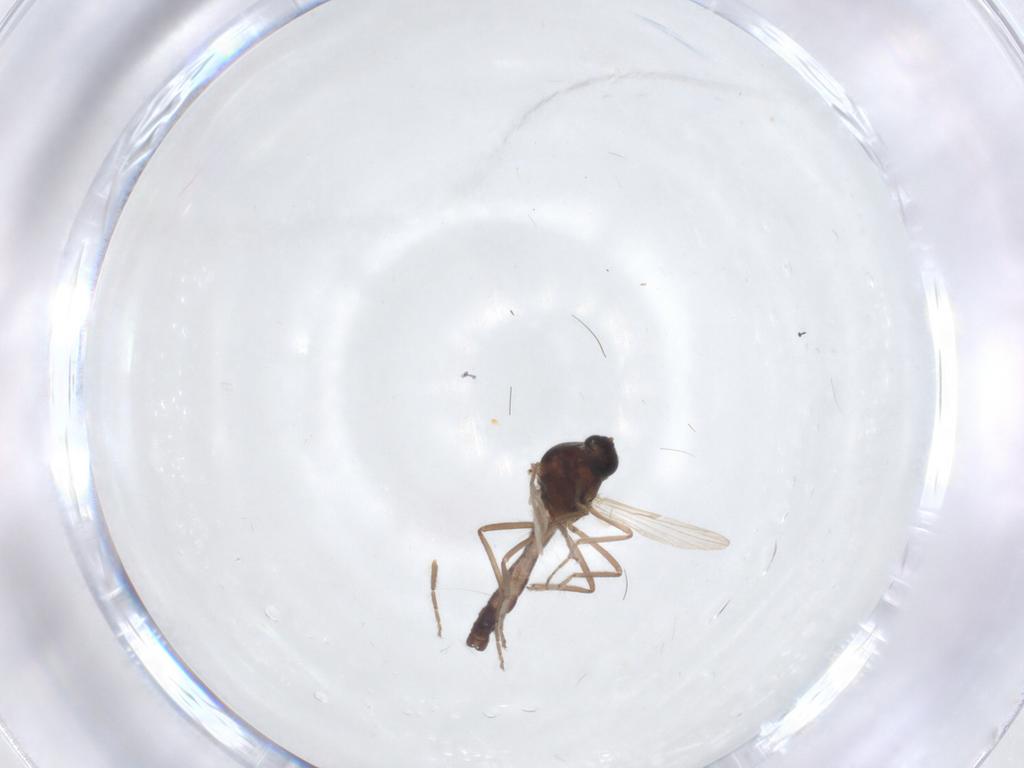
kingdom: Animalia
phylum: Arthropoda
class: Insecta
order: Diptera
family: Ceratopogonidae
